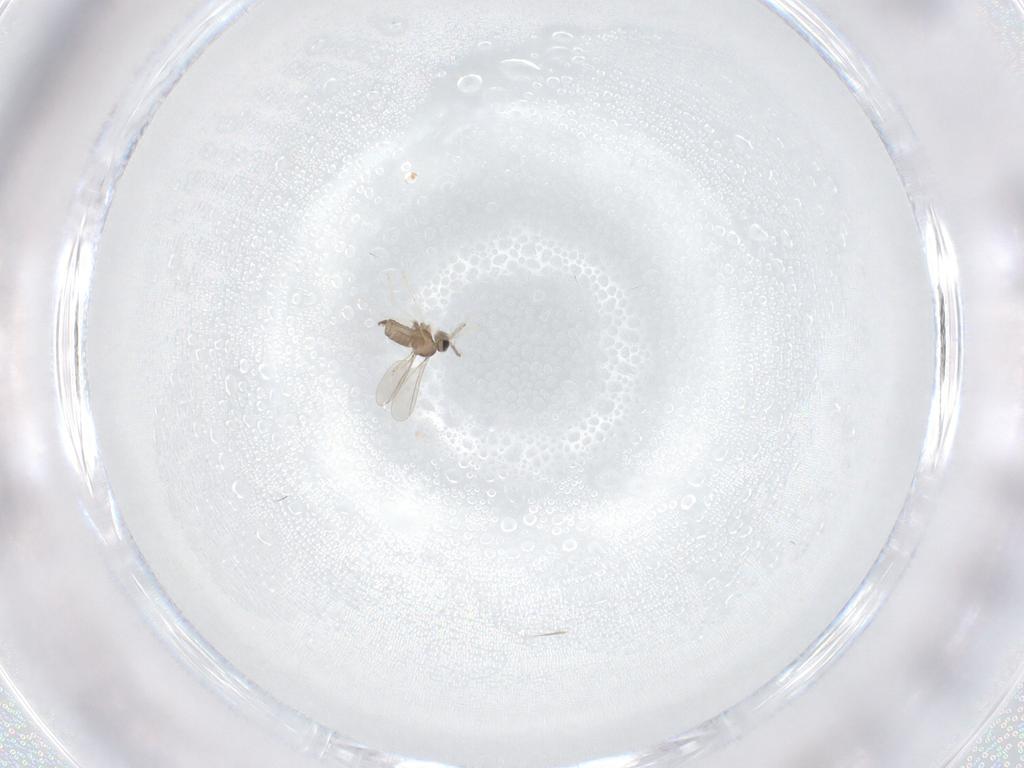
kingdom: Animalia
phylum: Arthropoda
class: Insecta
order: Diptera
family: Cecidomyiidae
